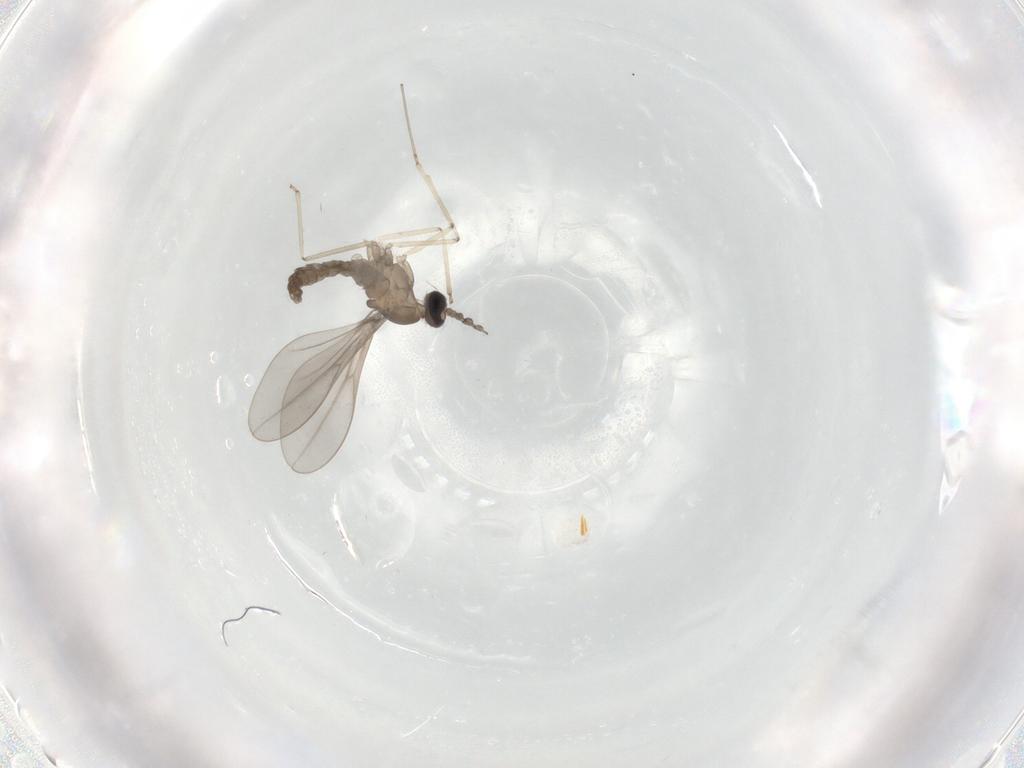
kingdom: Animalia
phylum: Arthropoda
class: Insecta
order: Diptera
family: Cecidomyiidae
